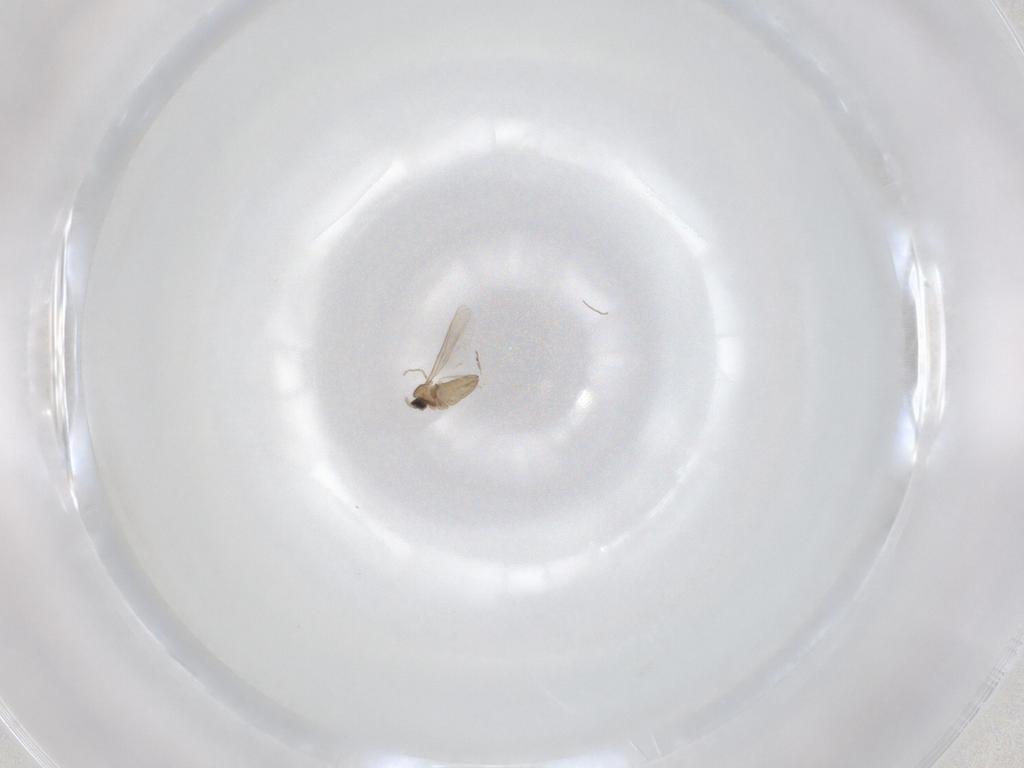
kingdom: Animalia
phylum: Arthropoda
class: Insecta
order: Diptera
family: Cecidomyiidae
